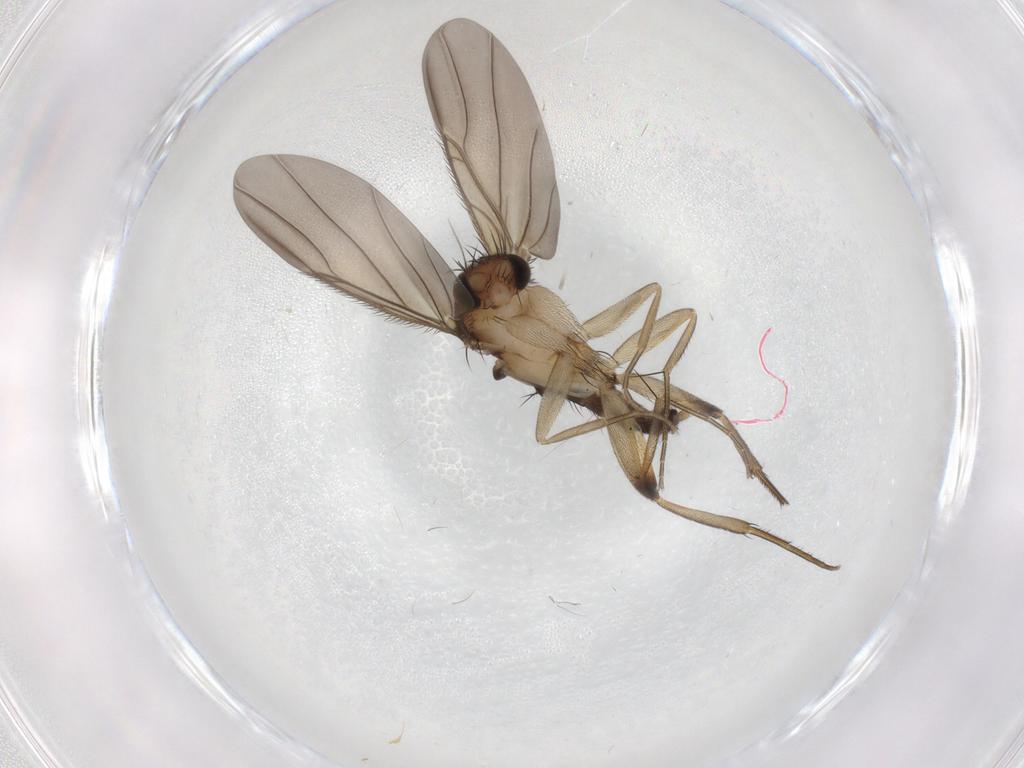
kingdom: Animalia
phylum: Arthropoda
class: Insecta
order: Diptera
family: Phoridae
